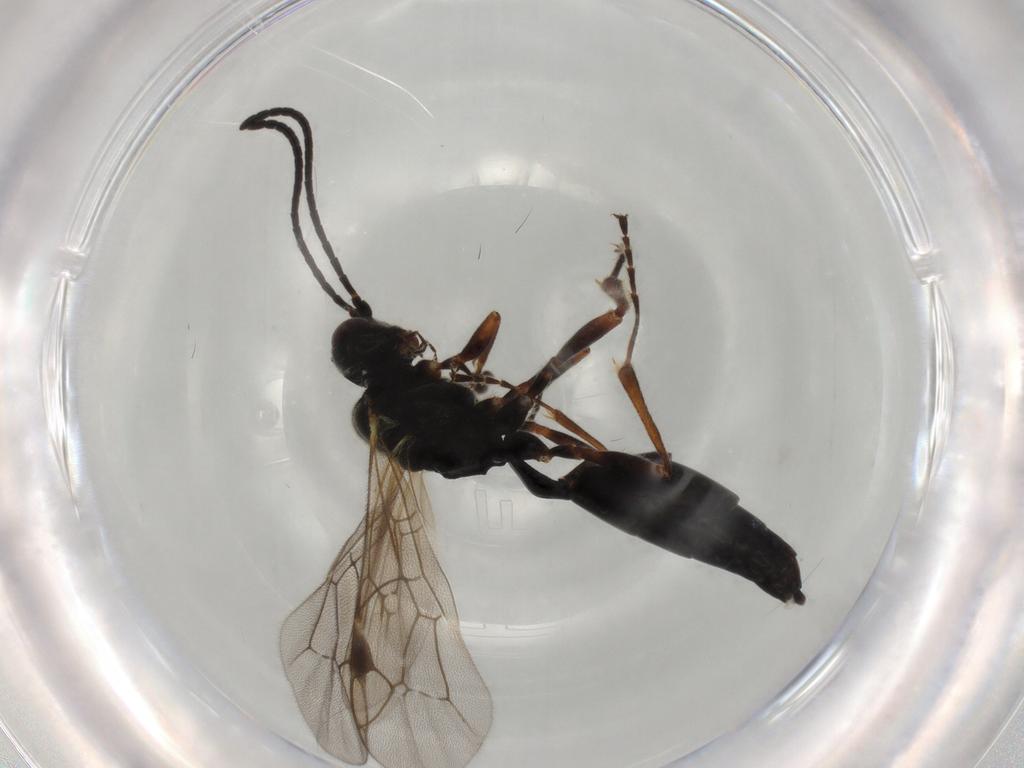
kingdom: Animalia
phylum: Arthropoda
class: Insecta
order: Hymenoptera
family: Ichneumonidae
